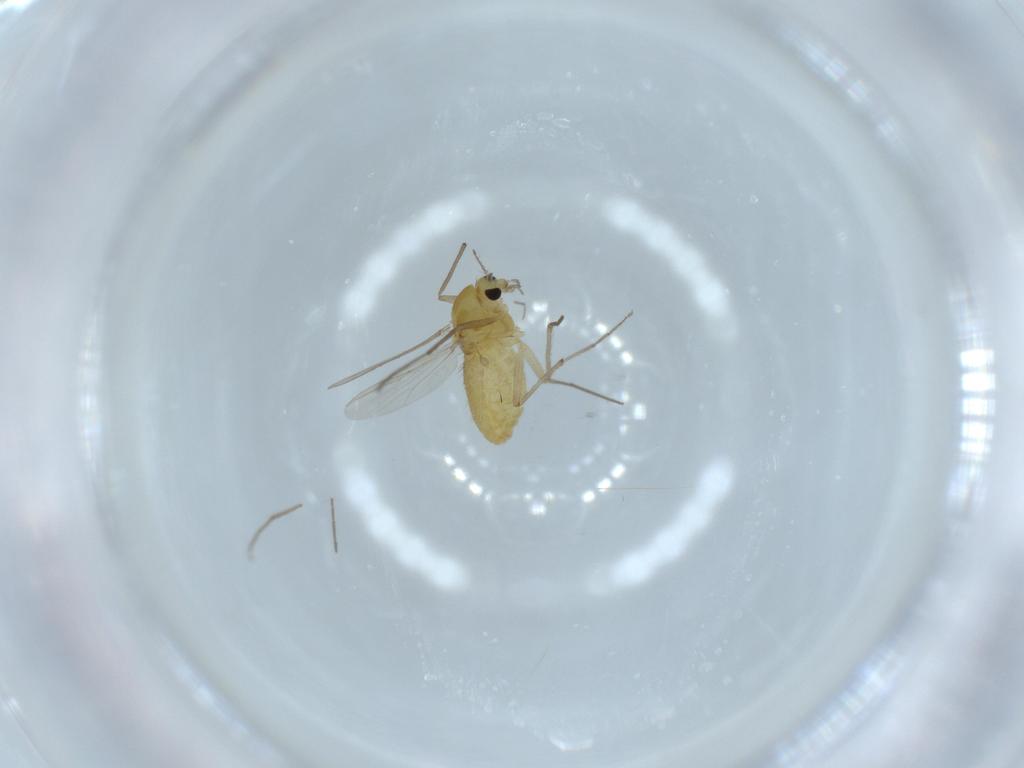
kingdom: Animalia
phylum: Arthropoda
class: Insecta
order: Diptera
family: Chironomidae
